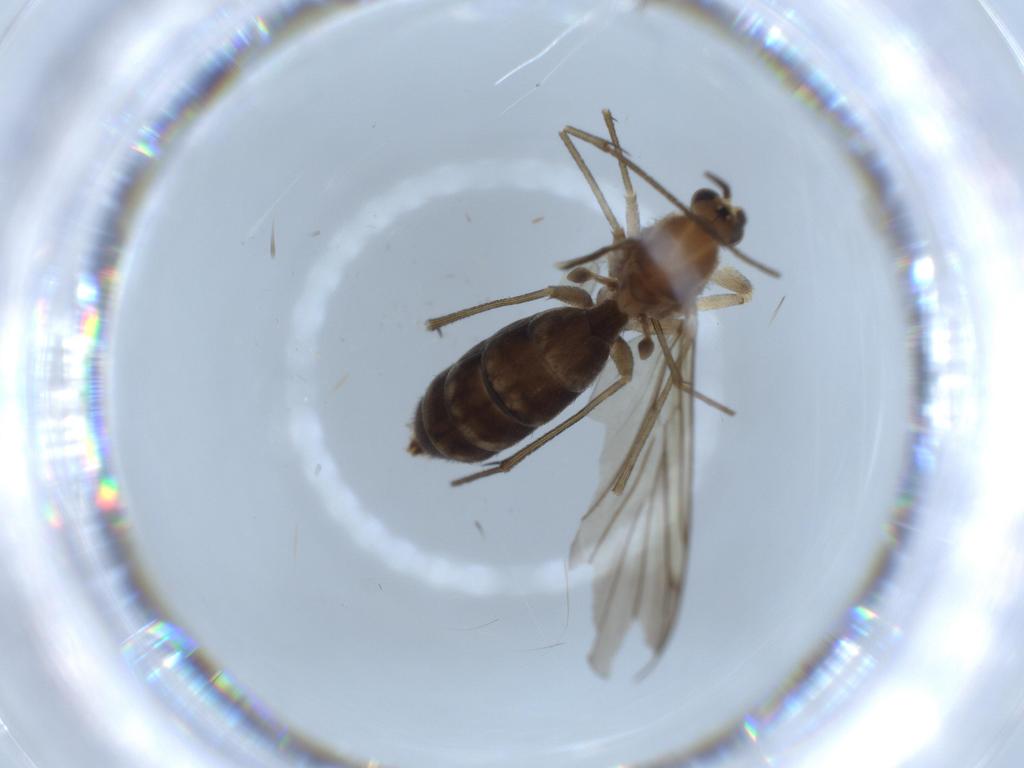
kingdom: Animalia
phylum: Arthropoda
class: Insecta
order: Diptera
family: Mycetophilidae
